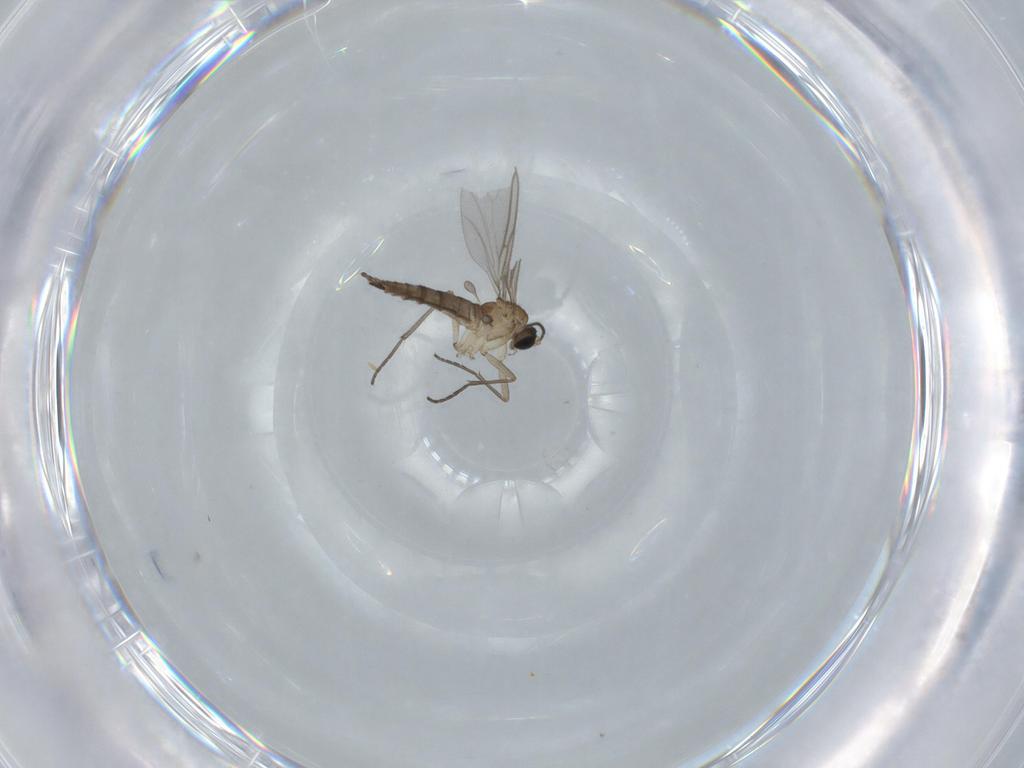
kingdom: Animalia
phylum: Arthropoda
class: Insecta
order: Diptera
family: Sciaridae
